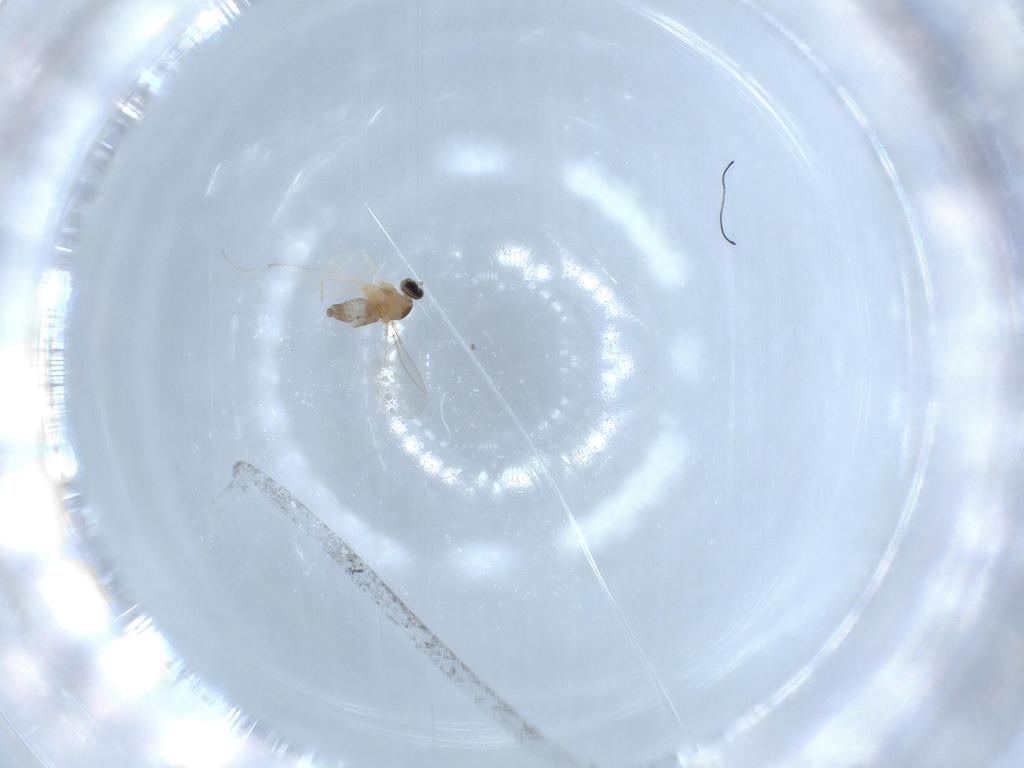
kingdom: Animalia
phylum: Arthropoda
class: Insecta
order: Diptera
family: Cecidomyiidae
